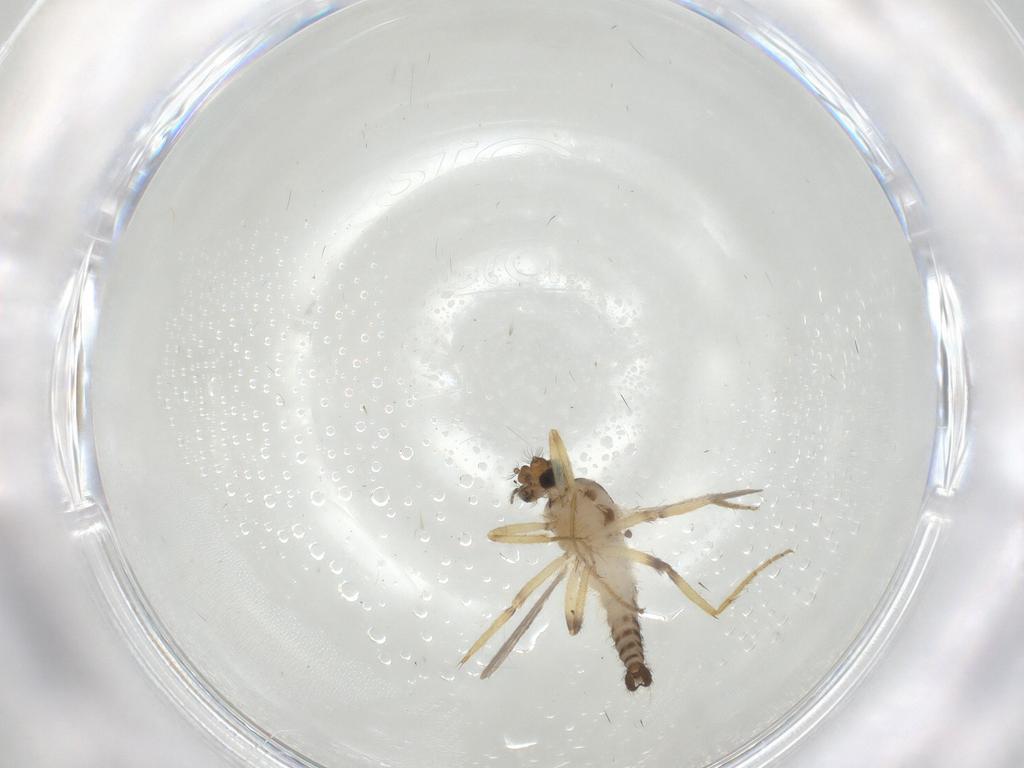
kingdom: Animalia
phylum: Arthropoda
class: Insecta
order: Diptera
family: Ceratopogonidae
